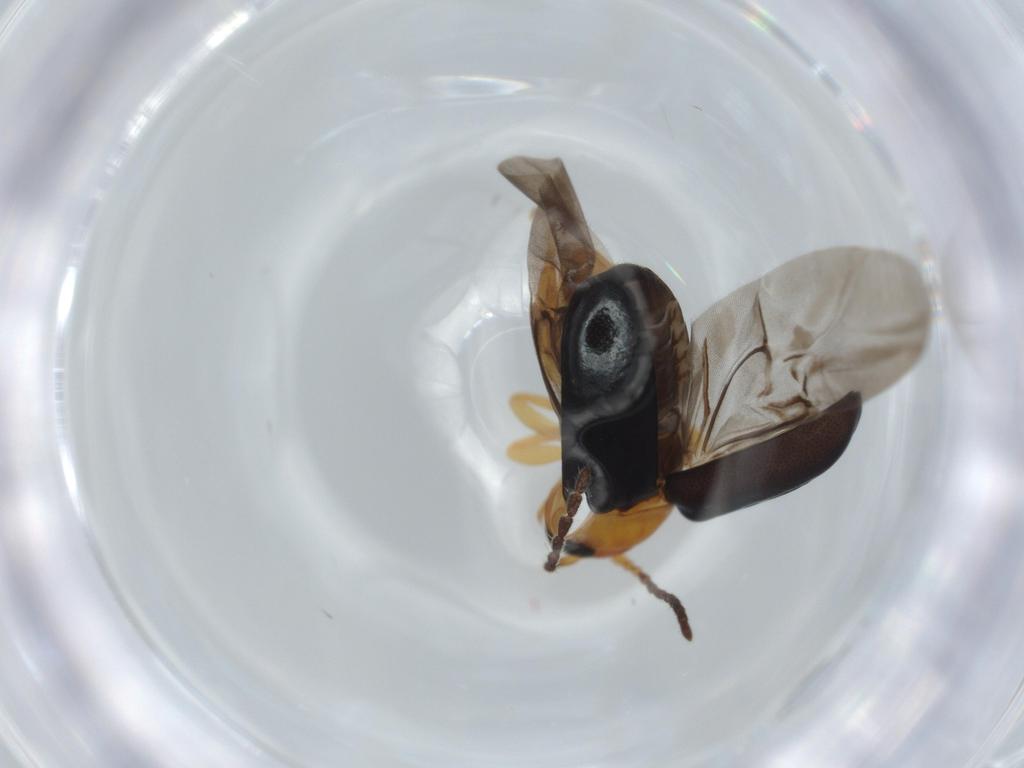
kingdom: Animalia
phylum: Arthropoda
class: Insecta
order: Coleoptera
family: Chrysomelidae
